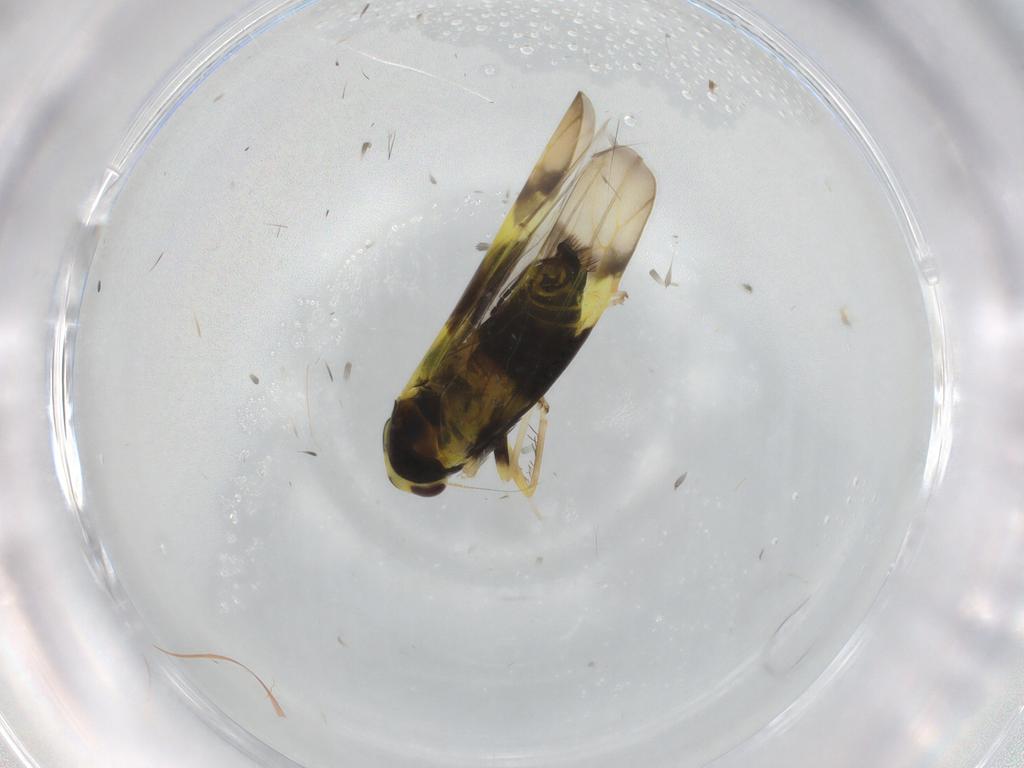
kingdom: Animalia
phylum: Arthropoda
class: Insecta
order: Hemiptera
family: Cicadellidae
